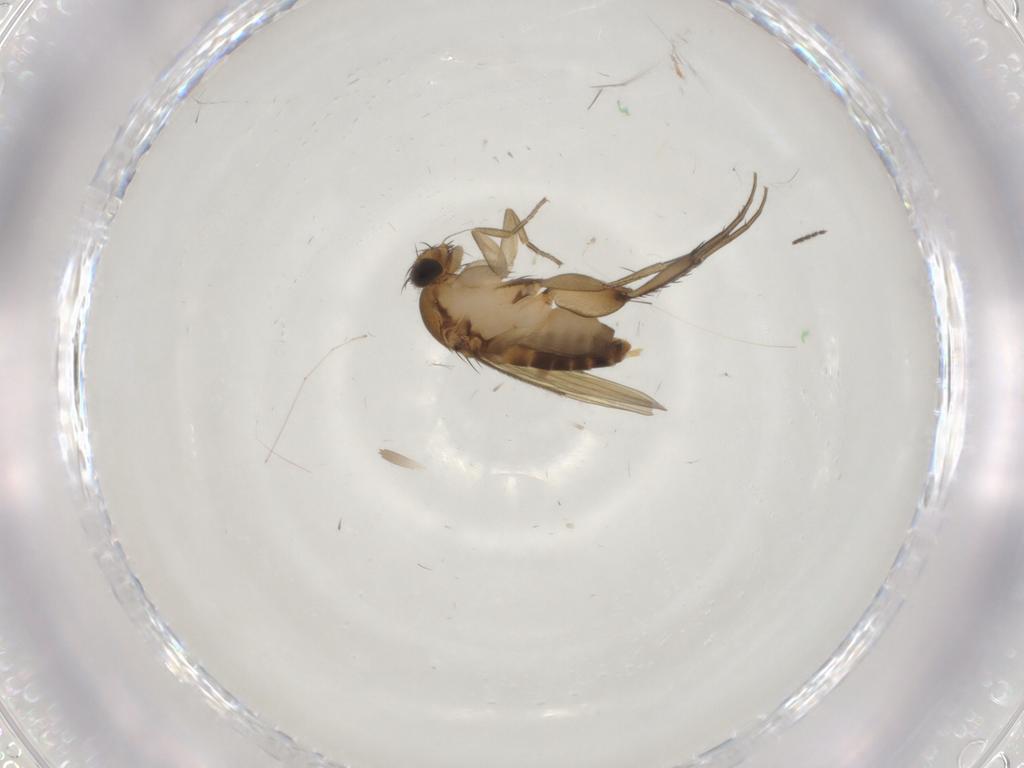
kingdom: Animalia
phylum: Arthropoda
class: Insecta
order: Diptera
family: Phoridae
